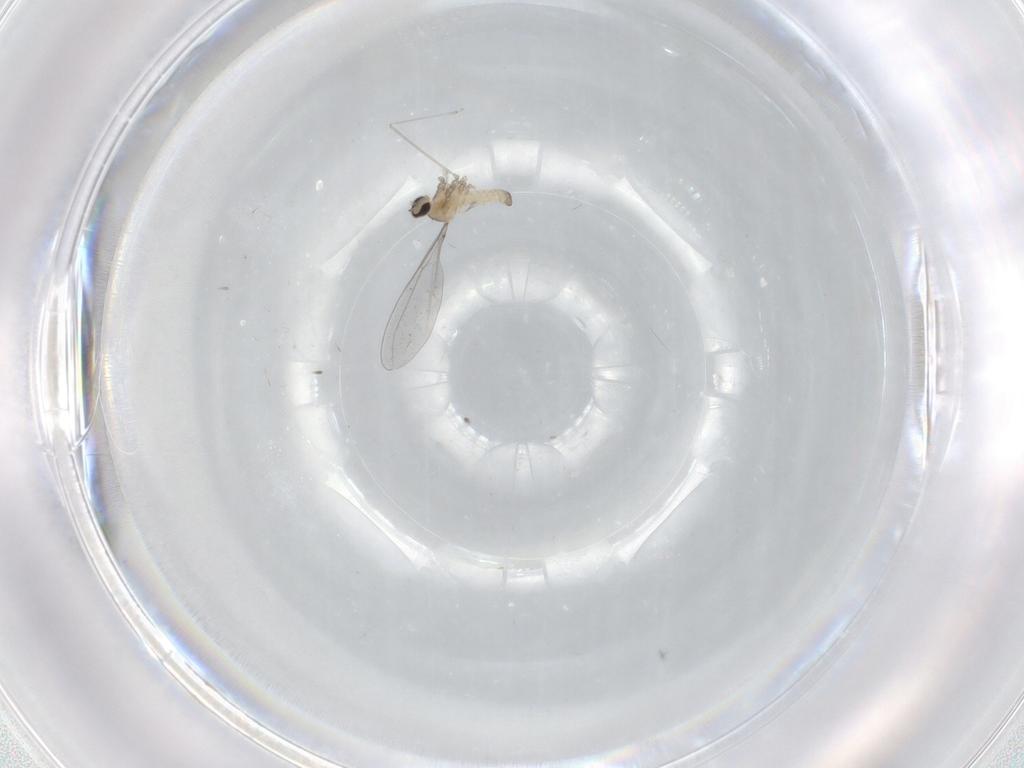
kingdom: Animalia
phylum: Arthropoda
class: Insecta
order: Diptera
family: Cecidomyiidae
